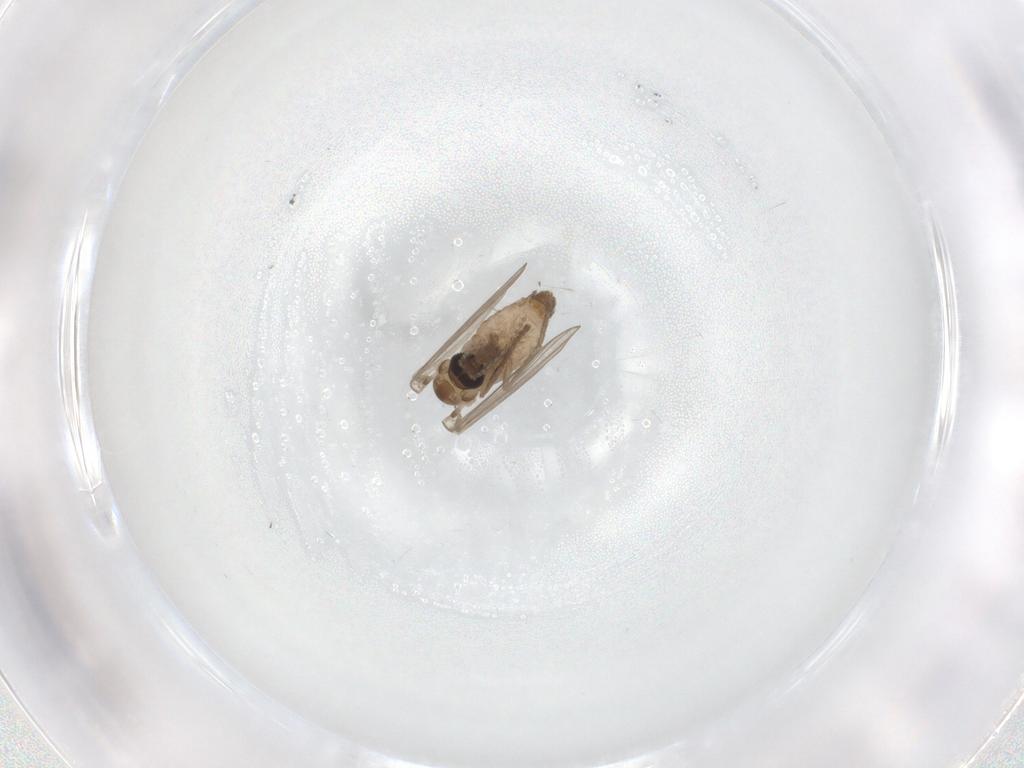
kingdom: Animalia
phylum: Arthropoda
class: Insecta
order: Diptera
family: Psychodidae
